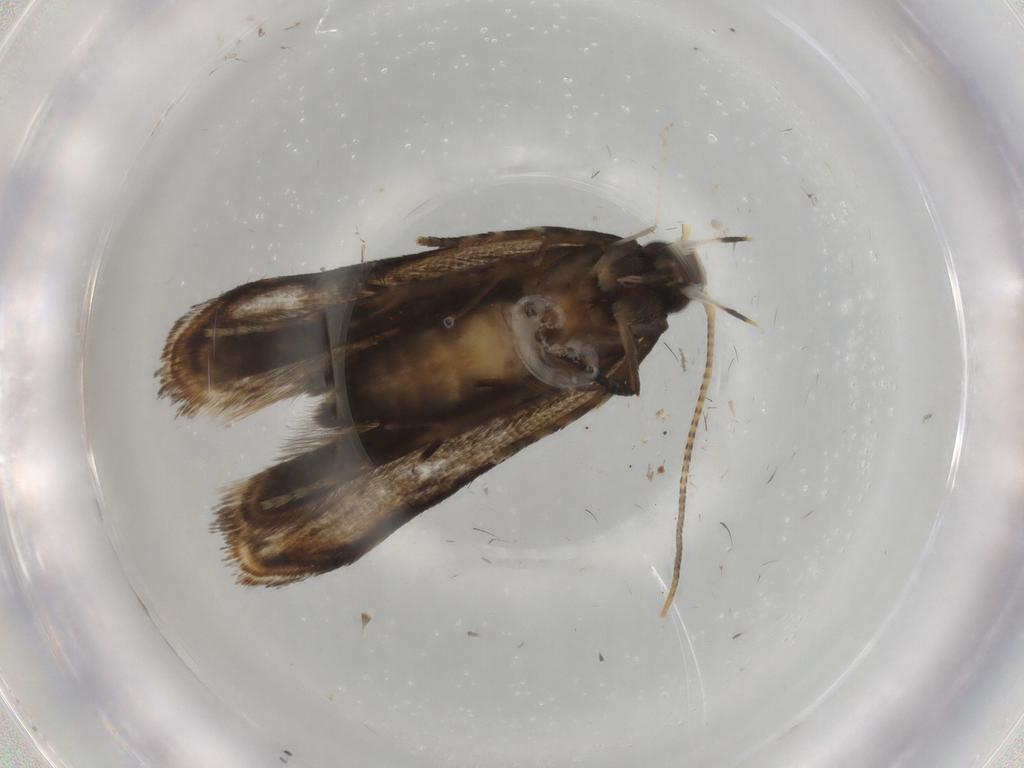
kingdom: Animalia
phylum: Arthropoda
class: Insecta
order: Lepidoptera
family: Gelechiidae
